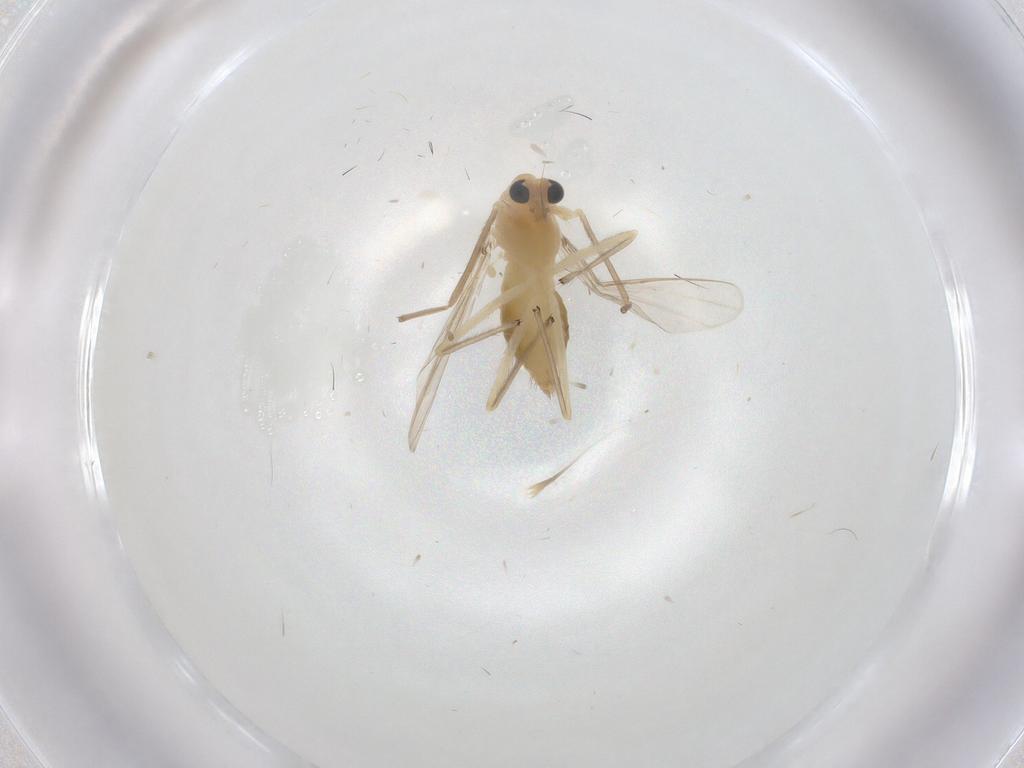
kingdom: Animalia
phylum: Arthropoda
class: Insecta
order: Diptera
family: Chironomidae
